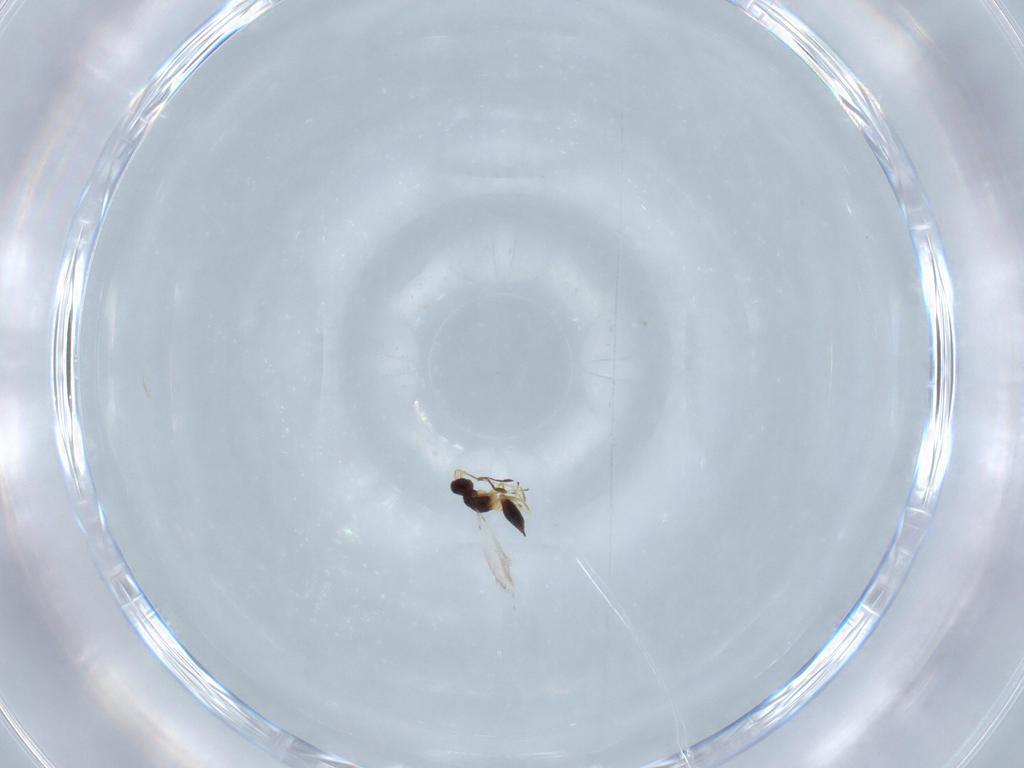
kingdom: Animalia
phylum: Arthropoda
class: Insecta
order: Hymenoptera
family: Mymaridae
